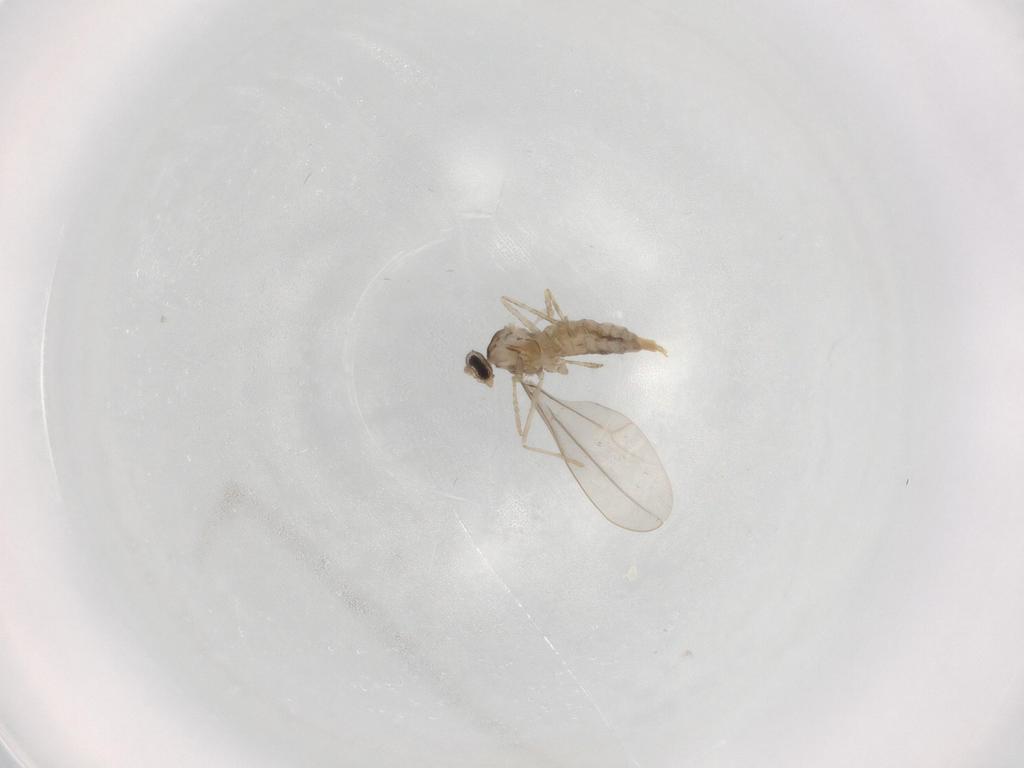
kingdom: Animalia
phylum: Arthropoda
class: Insecta
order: Diptera
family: Cecidomyiidae
